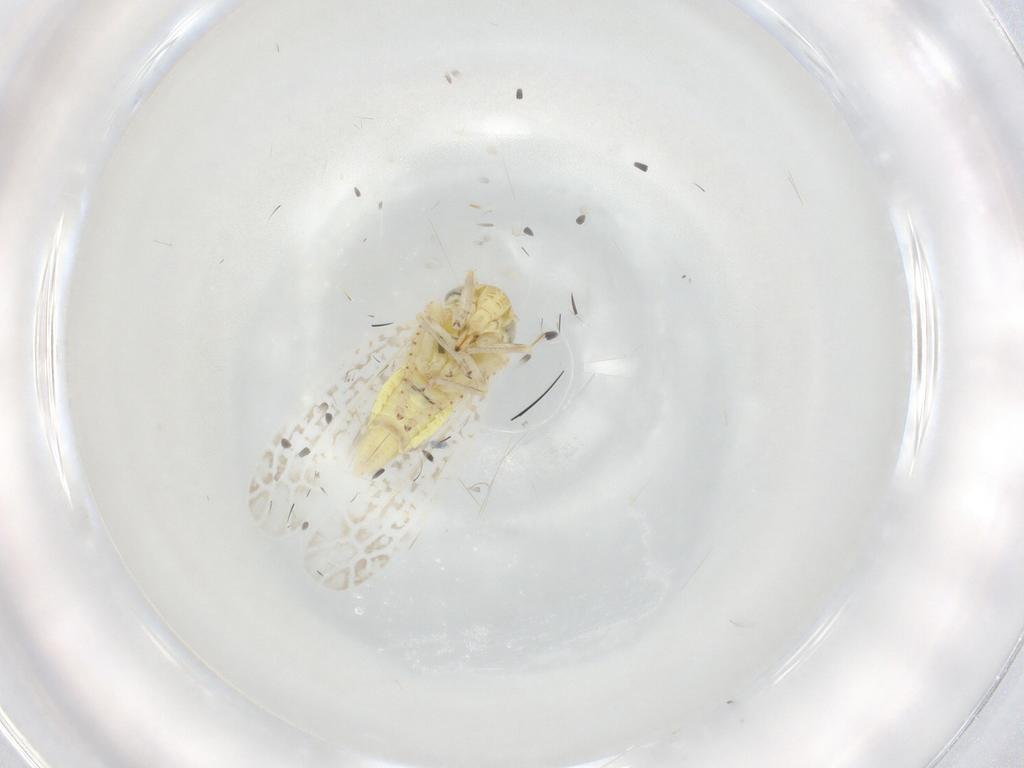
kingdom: Animalia
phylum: Arthropoda
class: Insecta
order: Hemiptera
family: Cicadellidae
